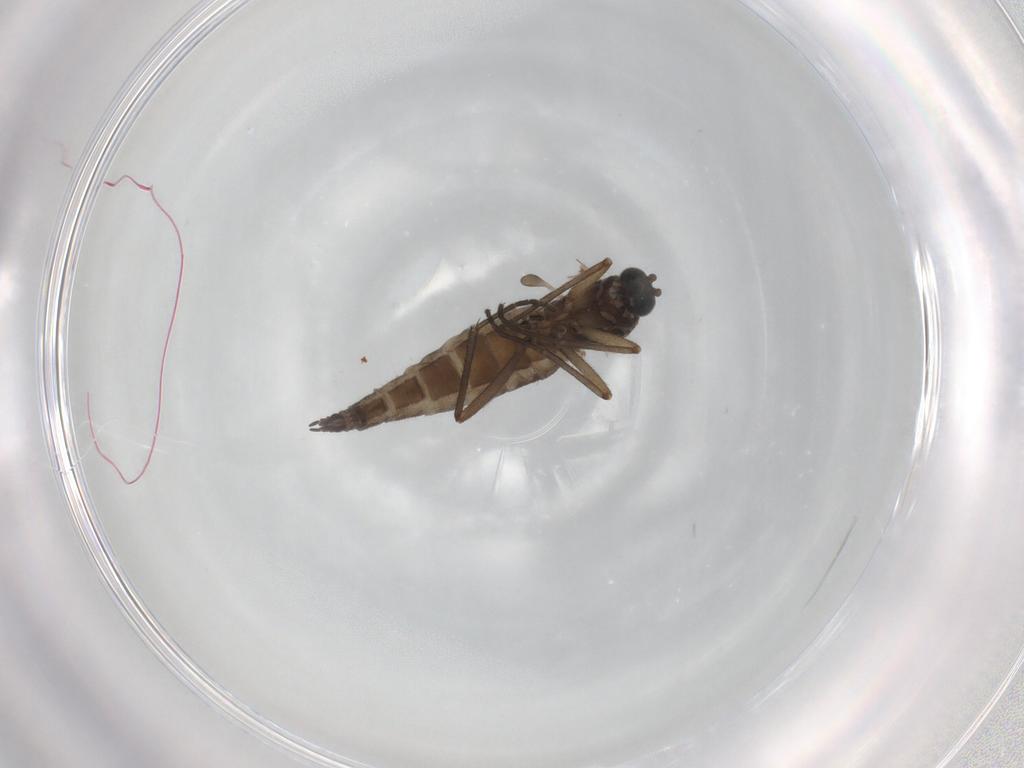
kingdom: Animalia
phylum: Arthropoda
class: Insecta
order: Diptera
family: Sciaridae
